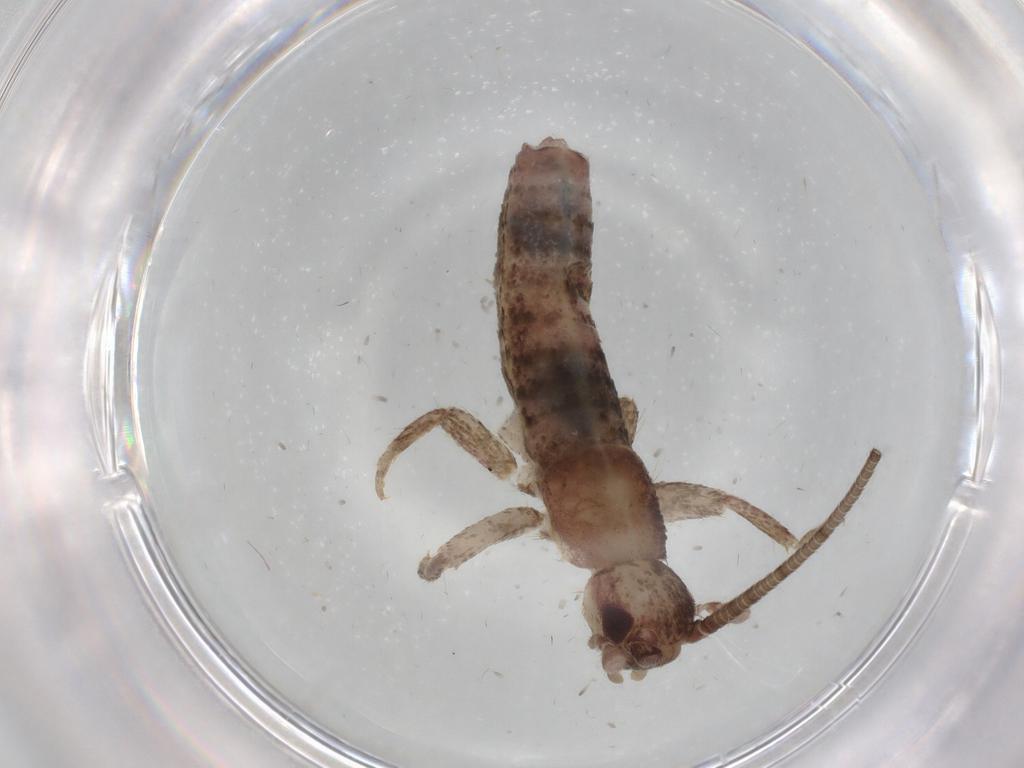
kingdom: Animalia
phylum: Arthropoda
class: Insecta
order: Orthoptera
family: Mogoplistidae
